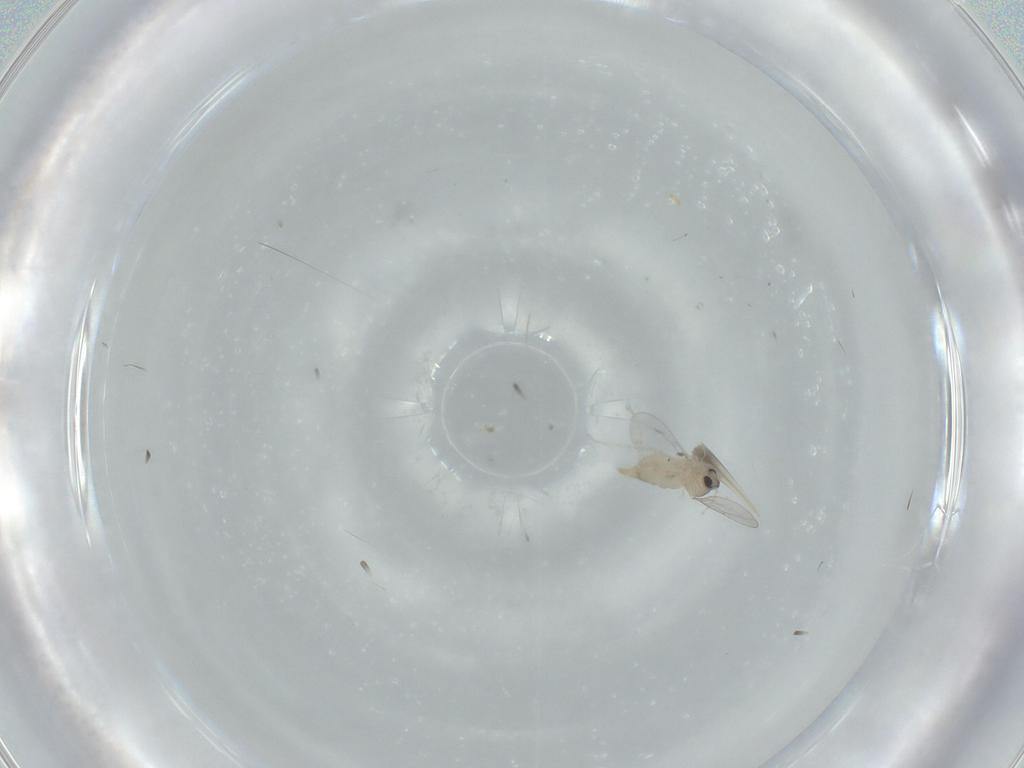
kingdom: Animalia
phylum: Arthropoda
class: Insecta
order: Diptera
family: Cecidomyiidae
